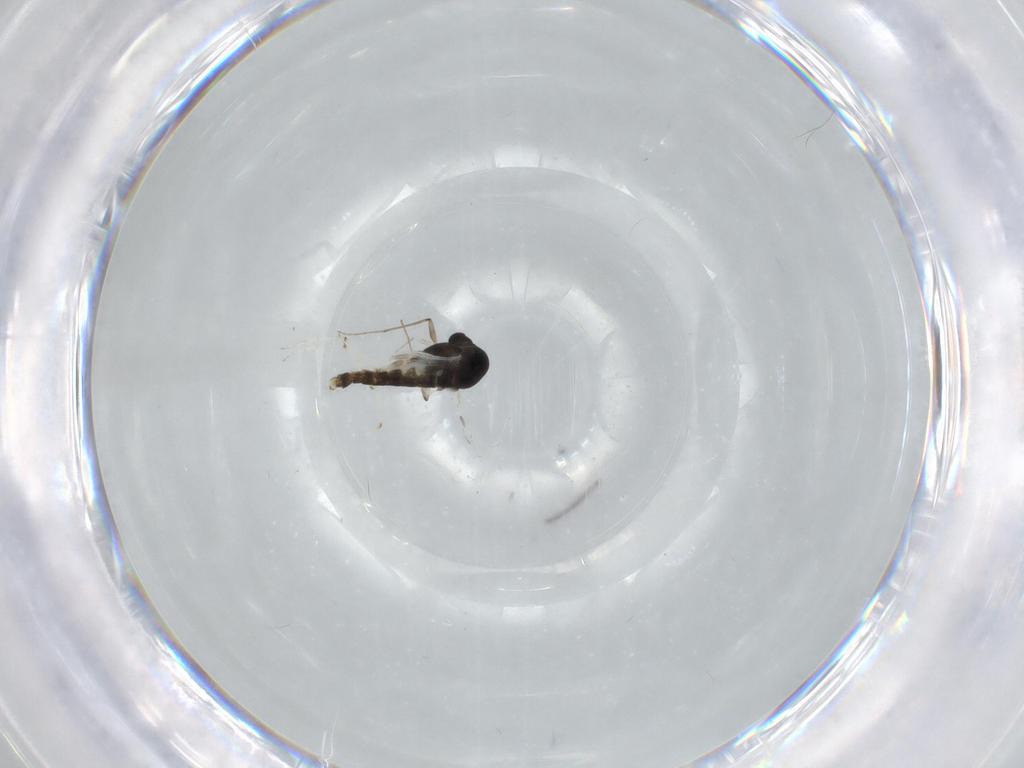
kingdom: Animalia
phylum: Arthropoda
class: Insecta
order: Diptera
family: Chironomidae
